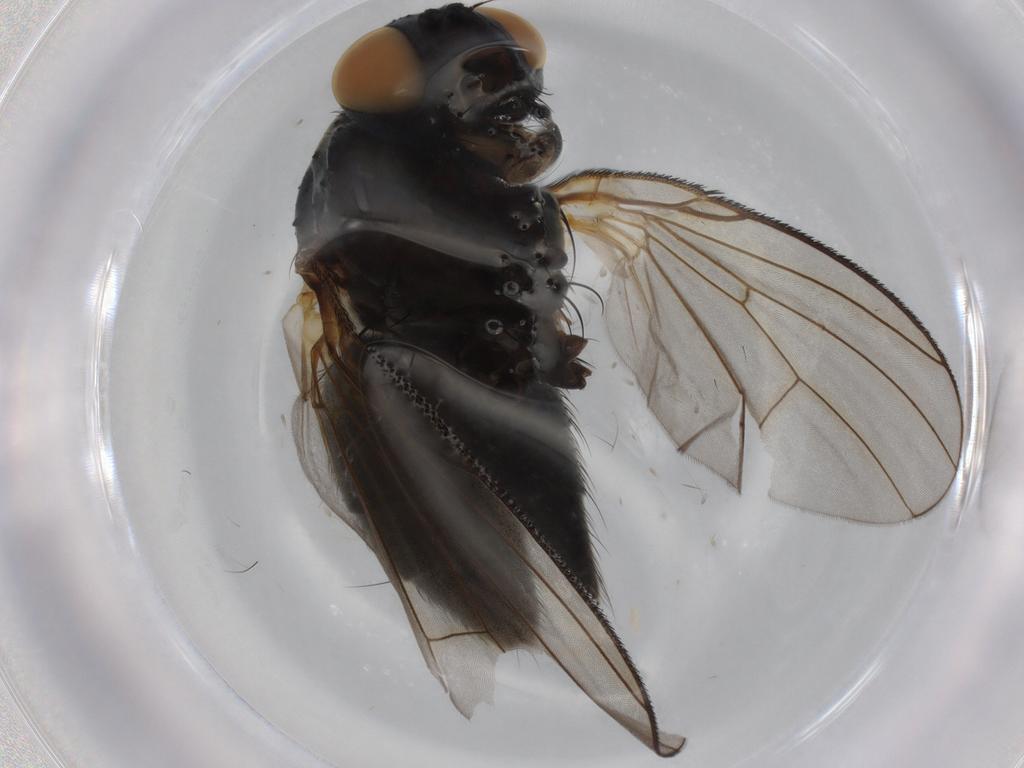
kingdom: Animalia
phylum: Arthropoda
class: Insecta
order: Diptera
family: Muscidae
